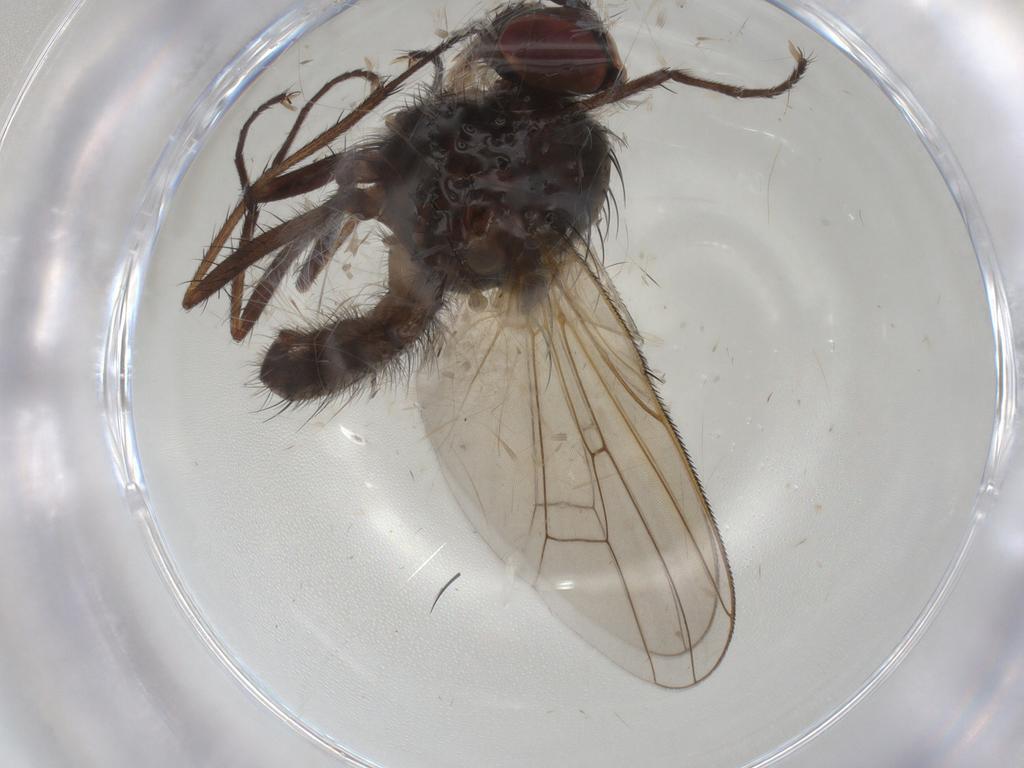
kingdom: Animalia
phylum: Arthropoda
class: Insecta
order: Diptera
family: Anthomyiidae
